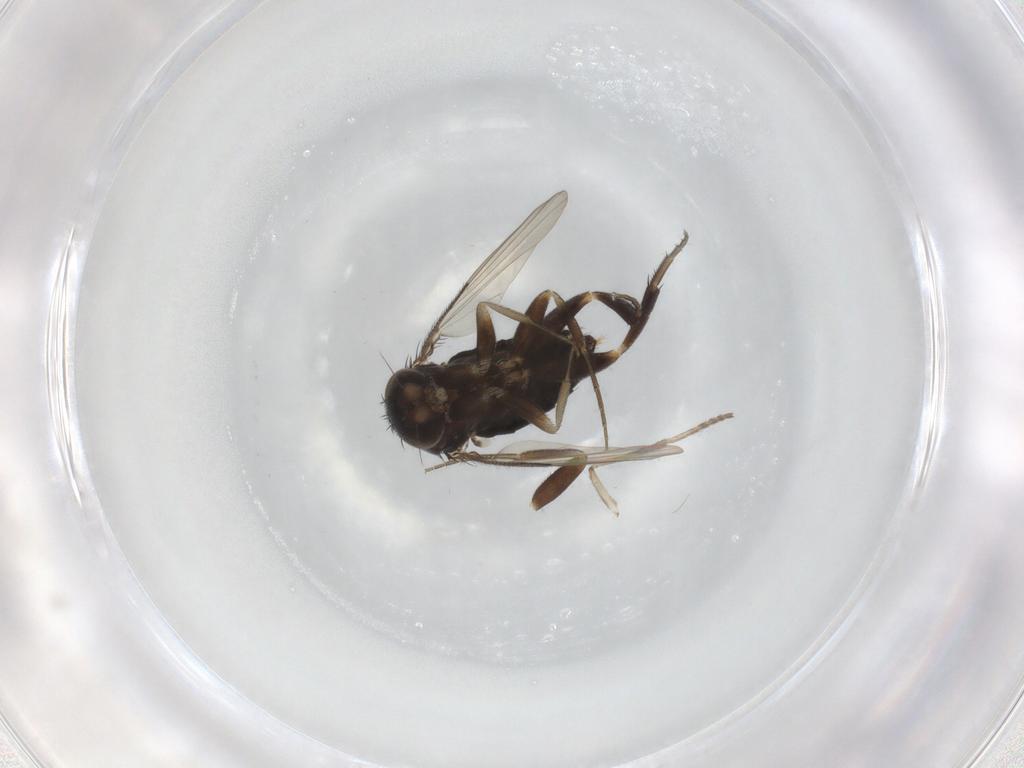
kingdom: Animalia
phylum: Arthropoda
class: Insecta
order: Diptera
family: Phoridae
